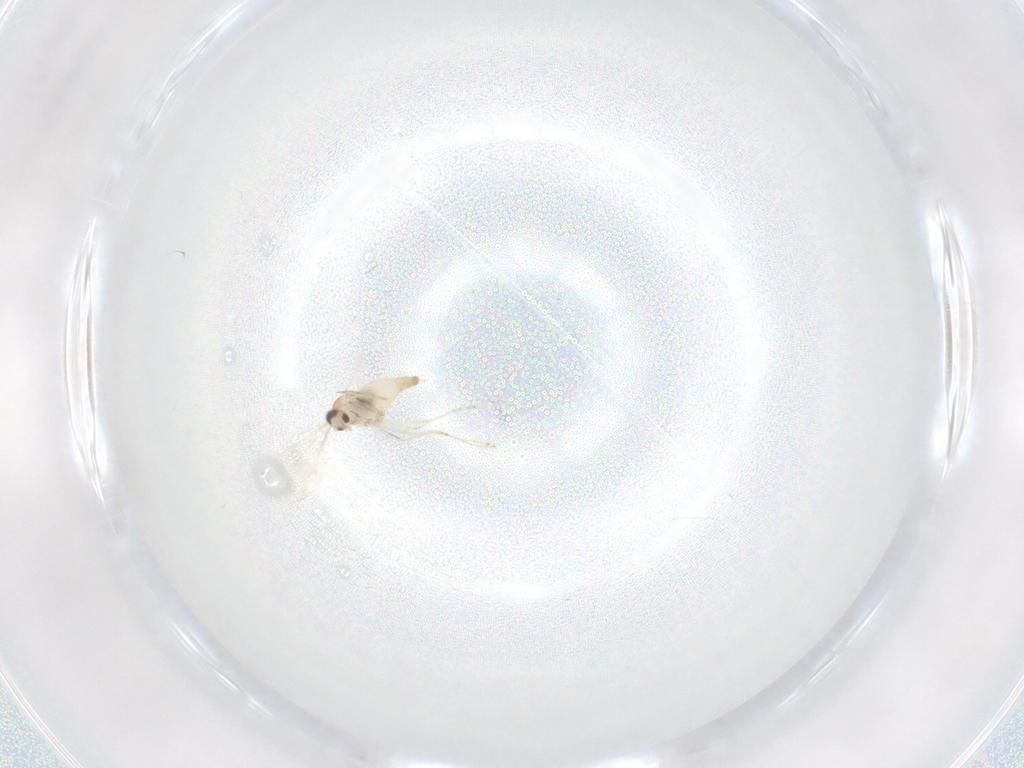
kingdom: Animalia
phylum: Arthropoda
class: Insecta
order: Diptera
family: Cecidomyiidae
